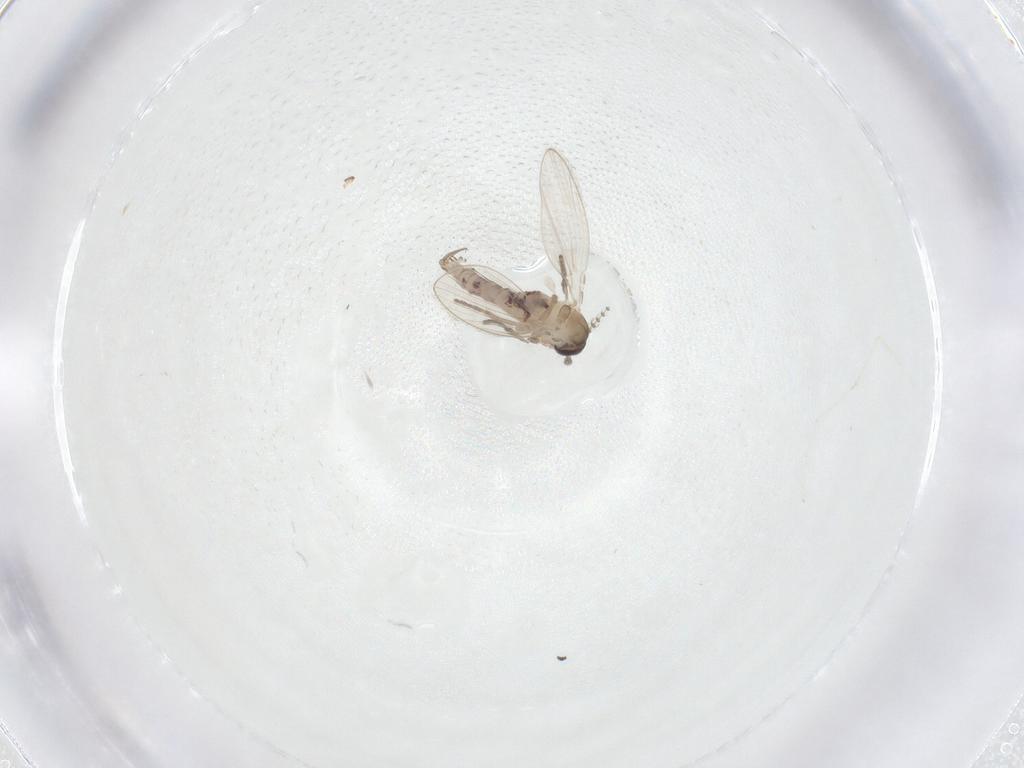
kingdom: Animalia
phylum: Arthropoda
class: Insecta
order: Diptera
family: Psychodidae
